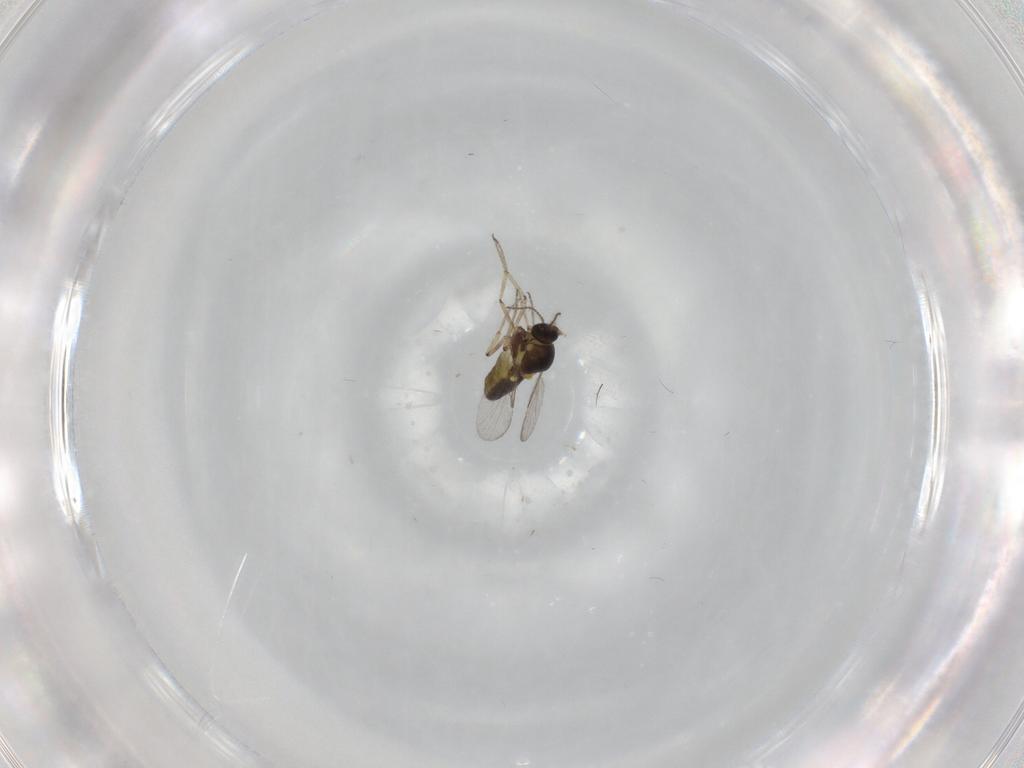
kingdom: Animalia
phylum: Arthropoda
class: Insecta
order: Diptera
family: Ceratopogonidae
